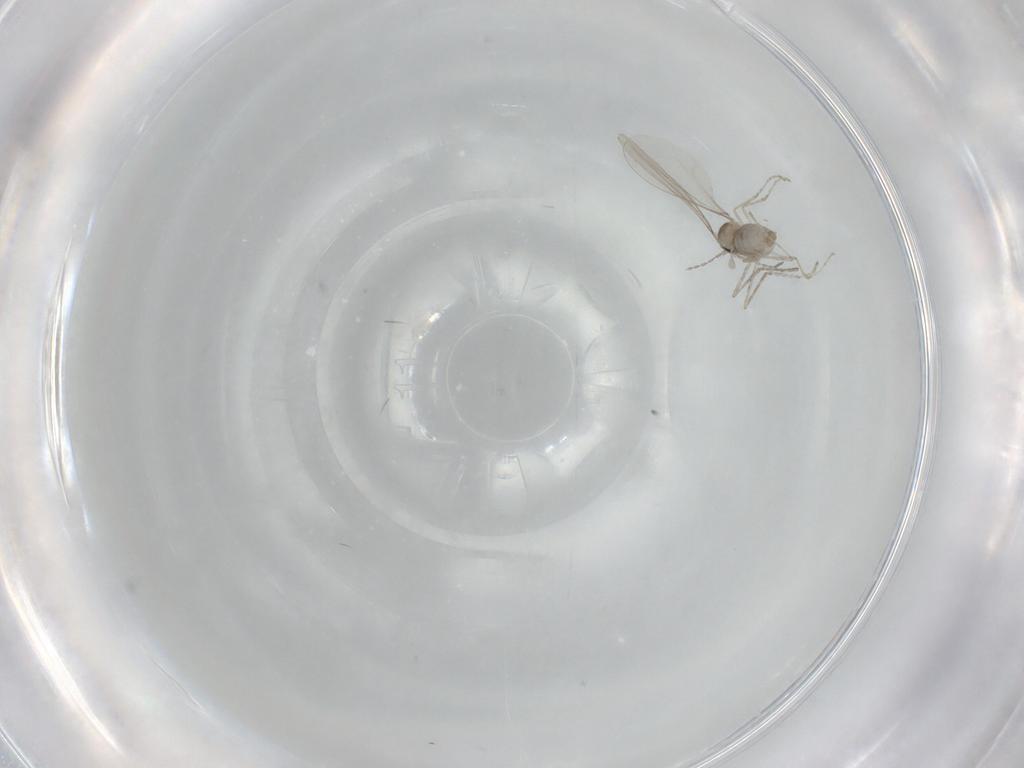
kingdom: Animalia
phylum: Arthropoda
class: Insecta
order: Diptera
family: Cecidomyiidae
